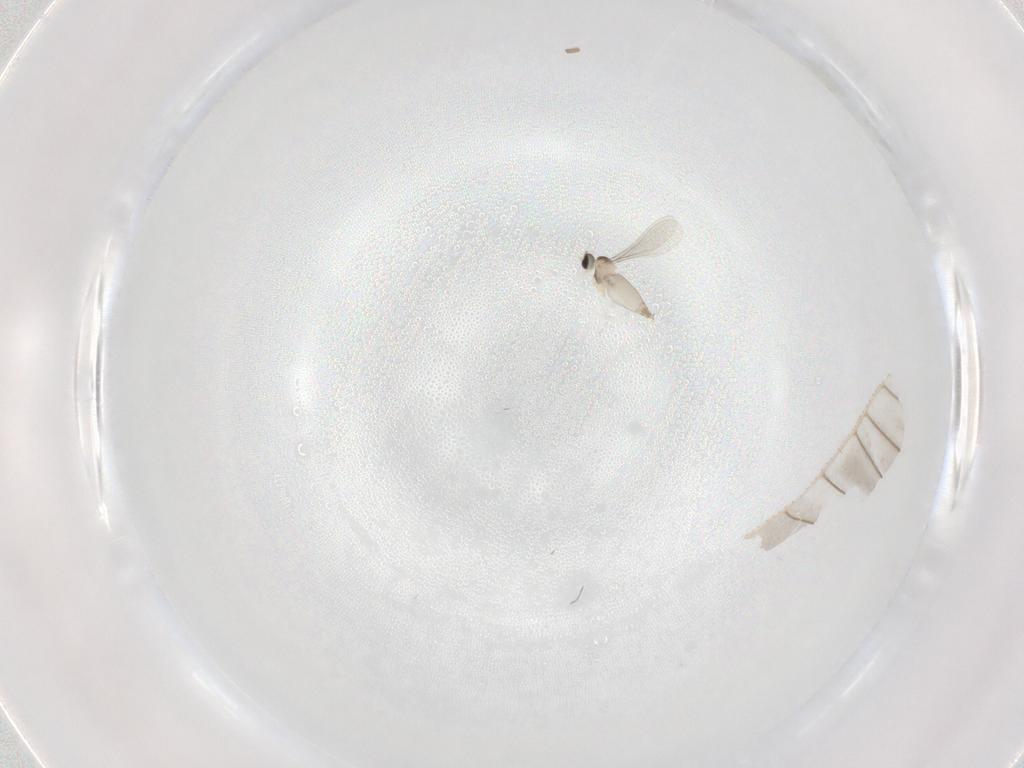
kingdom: Animalia
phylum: Arthropoda
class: Insecta
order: Diptera
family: Cecidomyiidae
